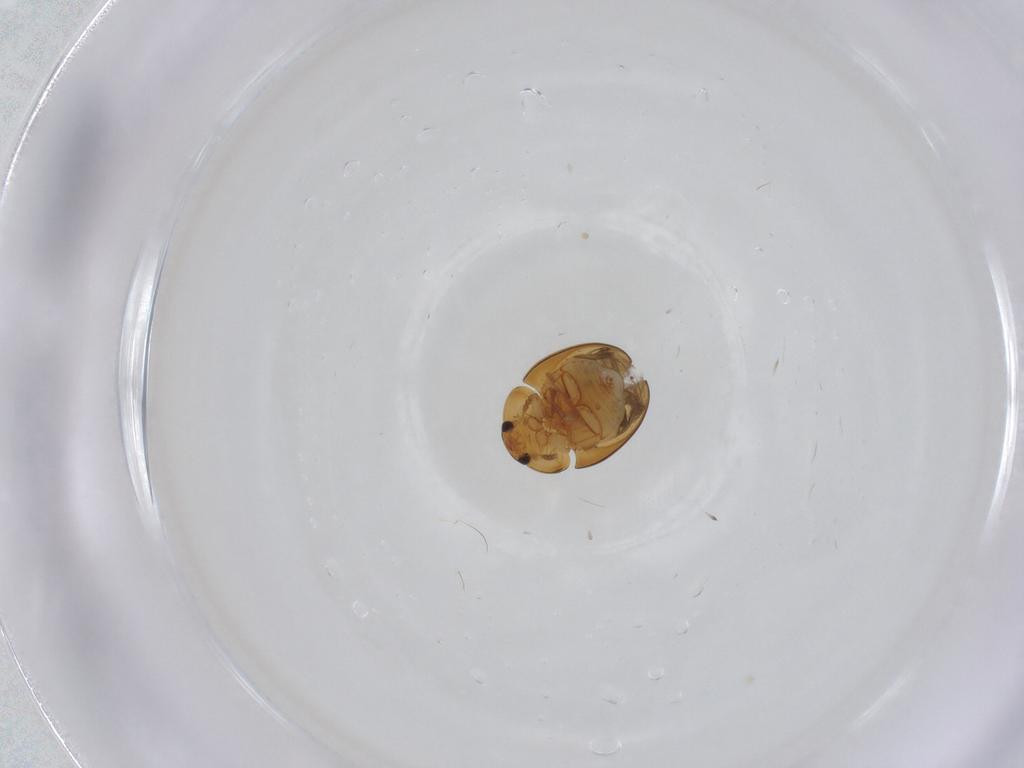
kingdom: Animalia
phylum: Arthropoda
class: Insecta
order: Coleoptera
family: Phalacridae
